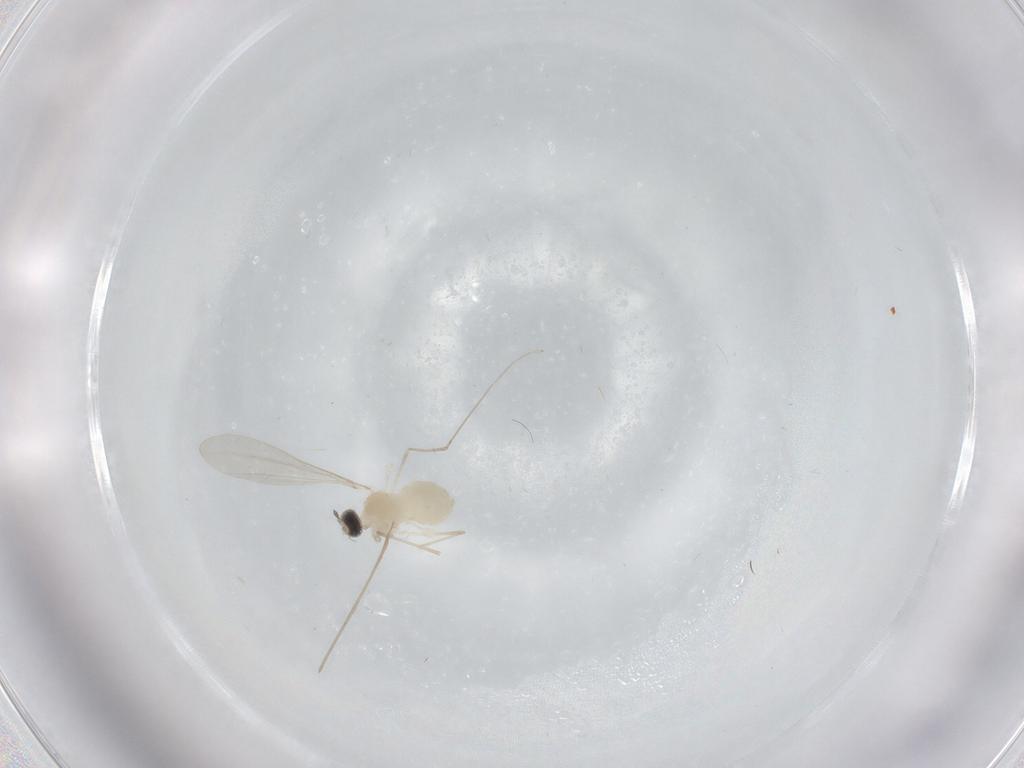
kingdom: Animalia
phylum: Arthropoda
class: Insecta
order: Diptera
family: Cecidomyiidae
